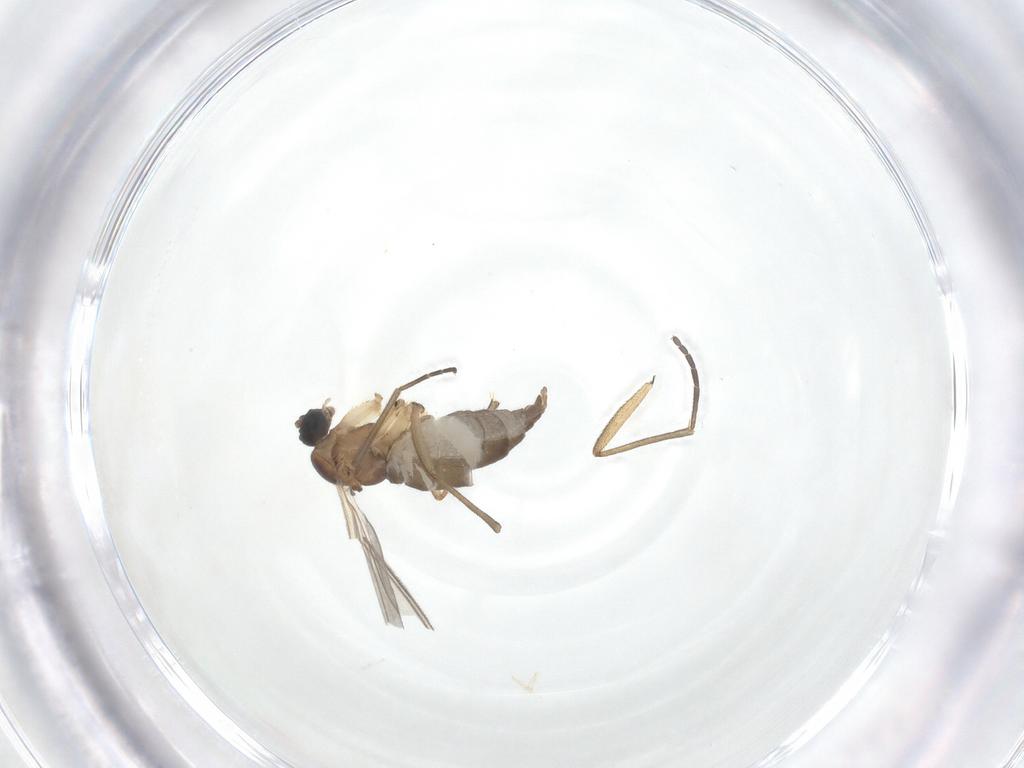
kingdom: Animalia
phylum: Arthropoda
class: Insecta
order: Diptera
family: Sciaridae
